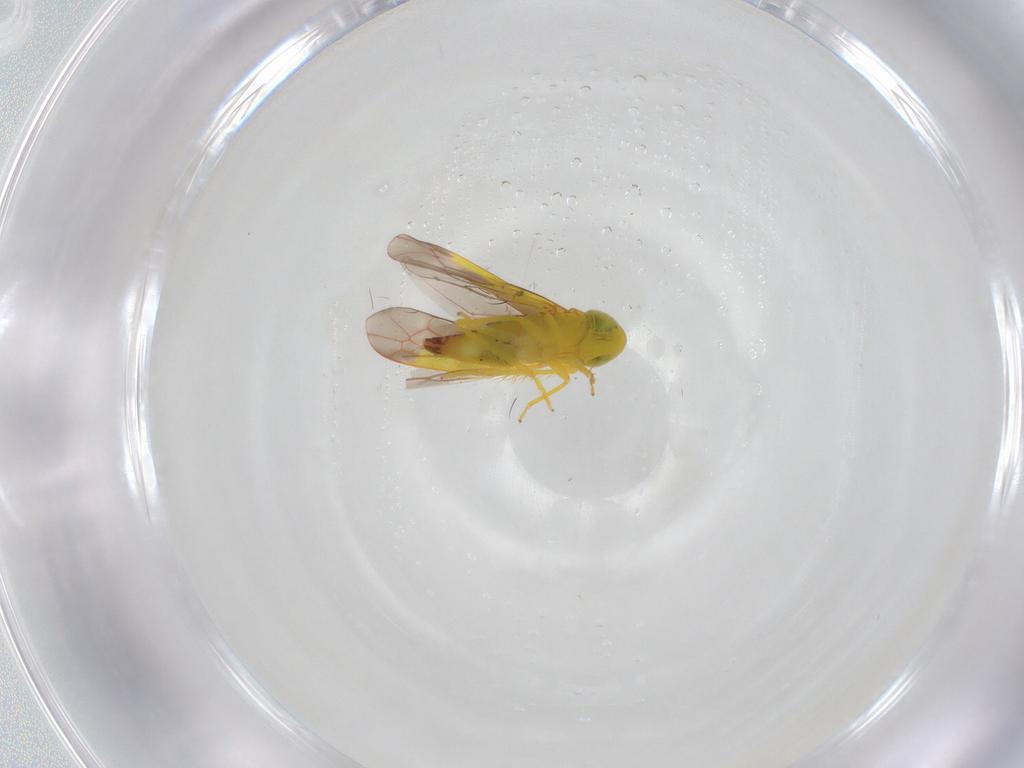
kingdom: Animalia
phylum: Arthropoda
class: Insecta
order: Hemiptera
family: Cicadellidae
